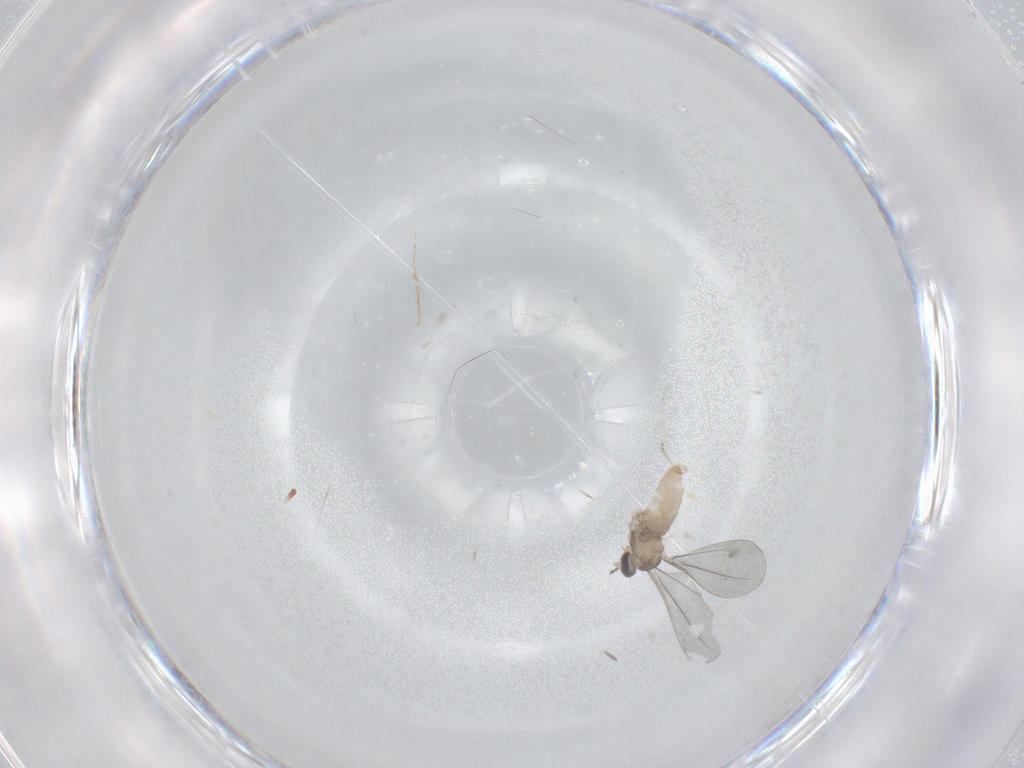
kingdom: Animalia
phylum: Arthropoda
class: Insecta
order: Diptera
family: Cecidomyiidae
